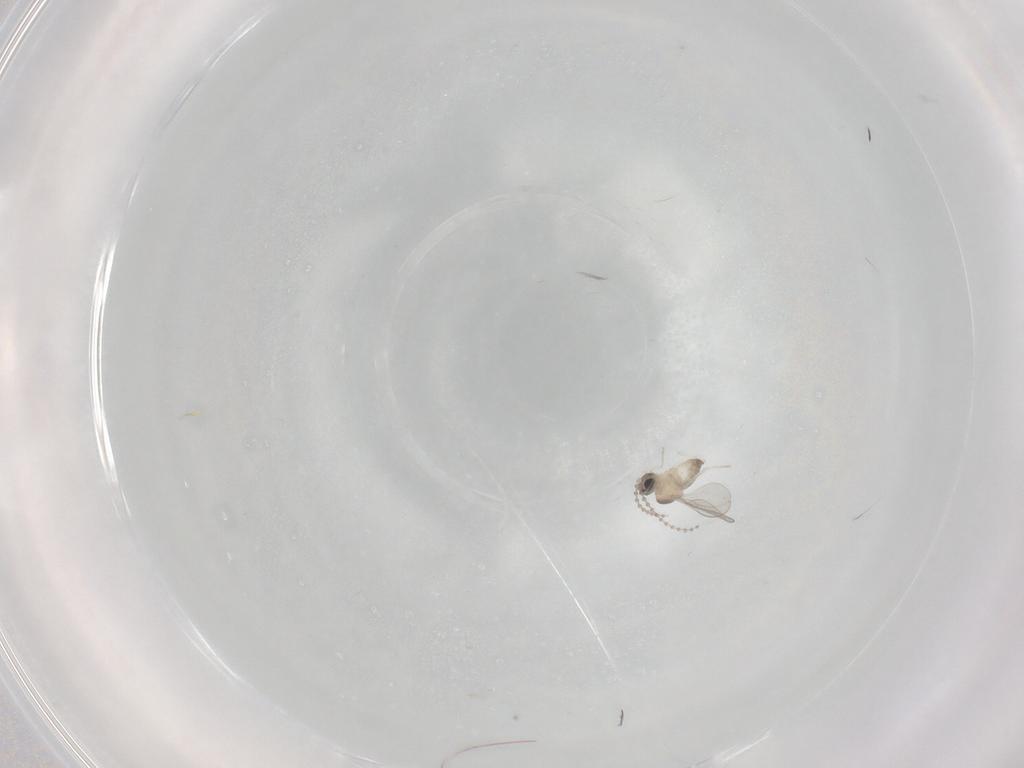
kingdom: Animalia
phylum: Arthropoda
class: Insecta
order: Diptera
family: Cecidomyiidae
